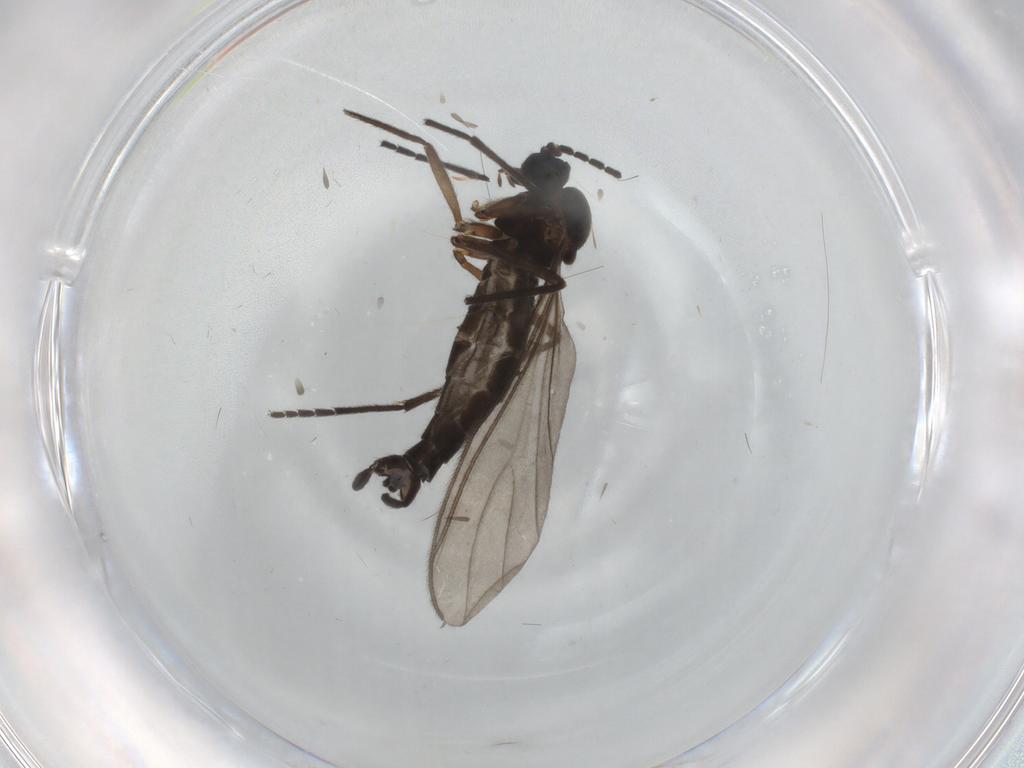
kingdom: Animalia
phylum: Arthropoda
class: Insecta
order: Diptera
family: Sciaridae
